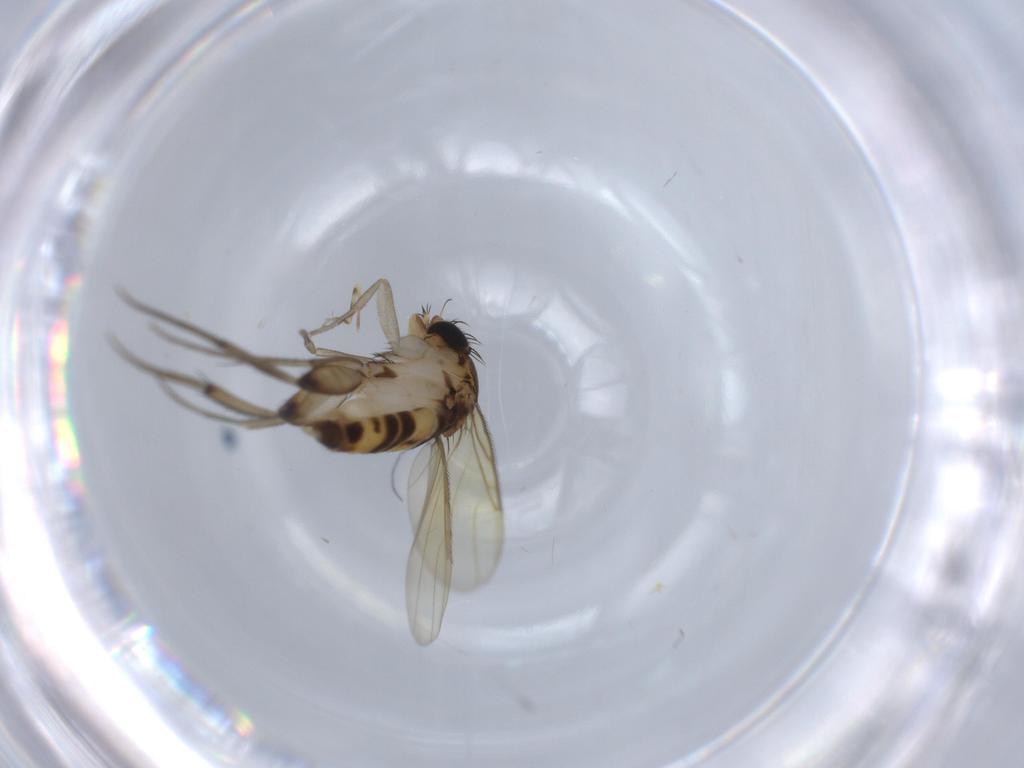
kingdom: Animalia
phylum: Arthropoda
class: Insecta
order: Diptera
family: Phoridae
